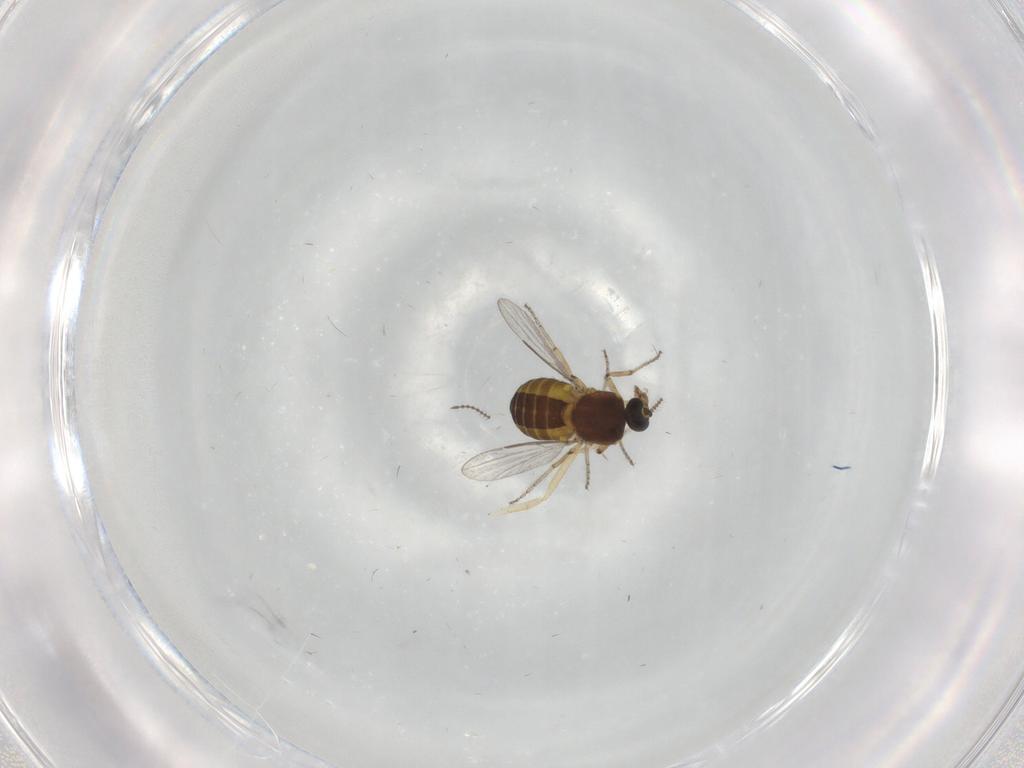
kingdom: Animalia
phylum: Arthropoda
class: Insecta
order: Diptera
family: Ceratopogonidae
